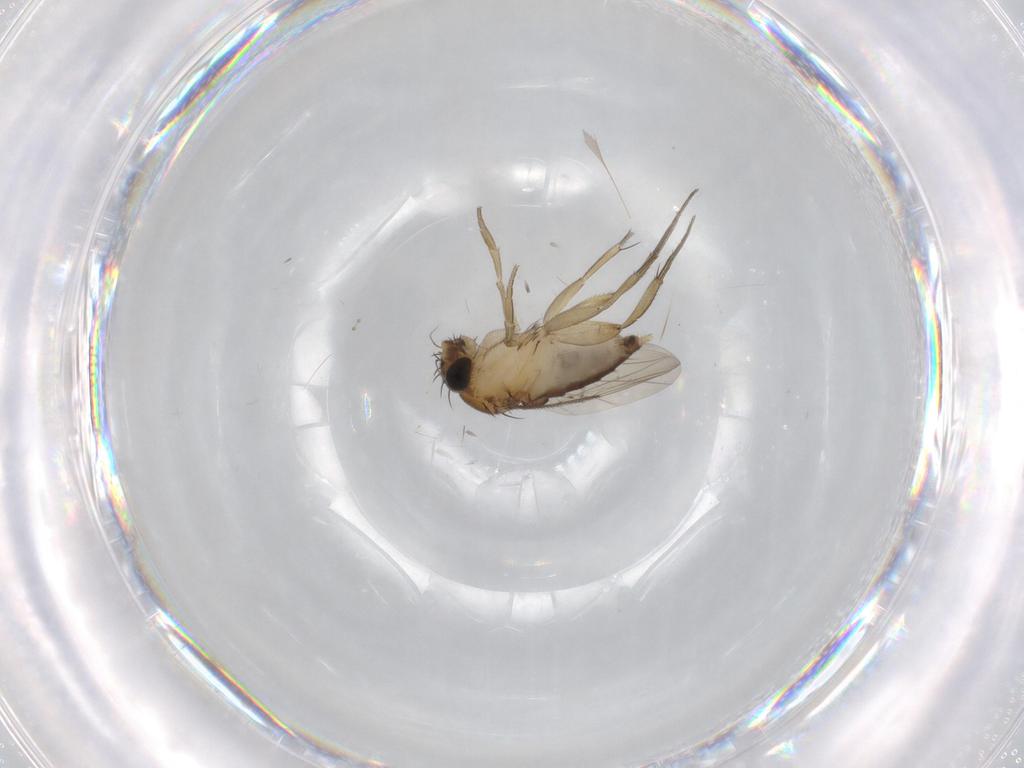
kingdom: Animalia
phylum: Arthropoda
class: Insecta
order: Diptera
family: Phoridae
